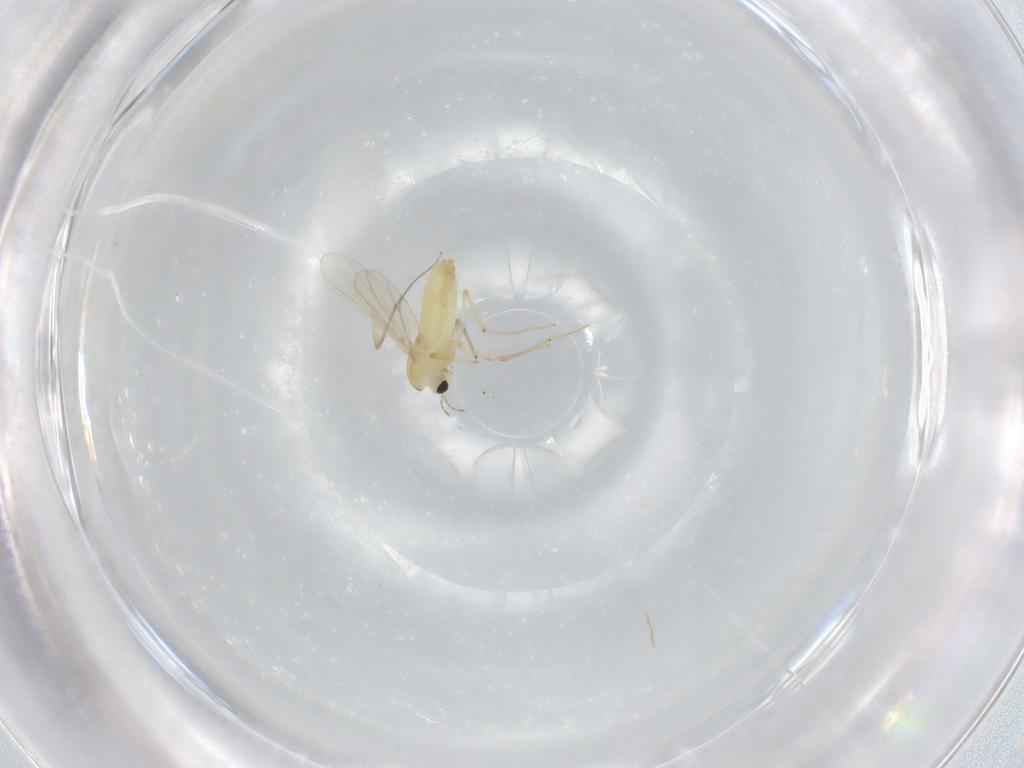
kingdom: Animalia
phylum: Arthropoda
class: Insecta
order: Diptera
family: Chironomidae
